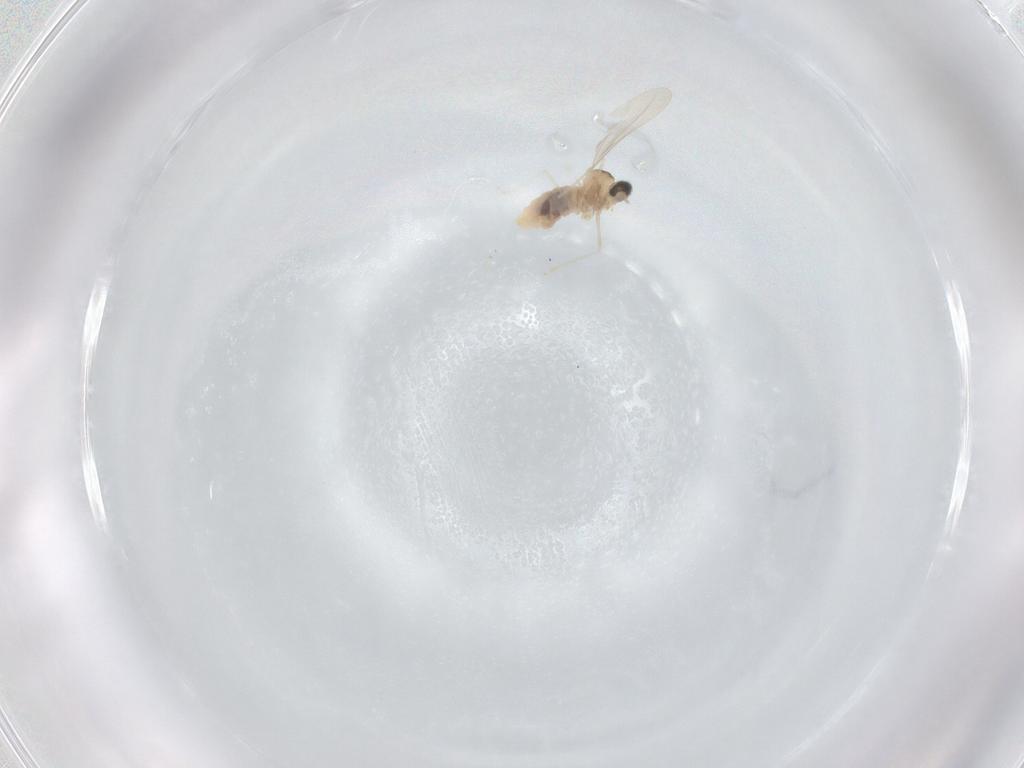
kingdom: Animalia
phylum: Arthropoda
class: Insecta
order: Diptera
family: Cecidomyiidae
